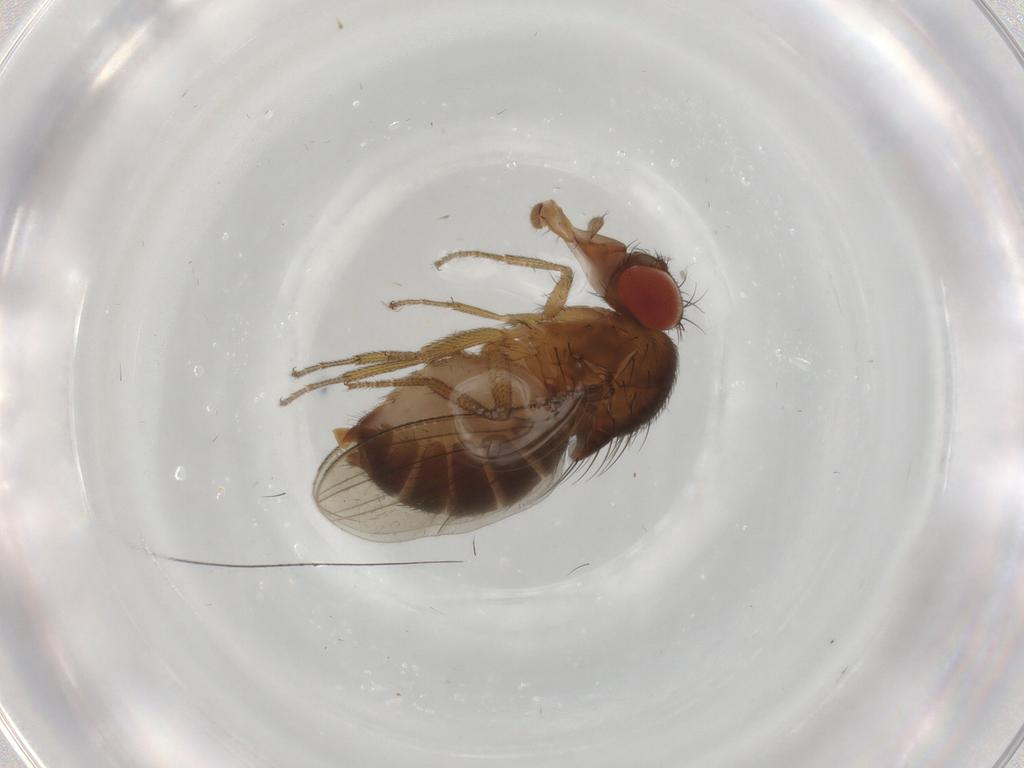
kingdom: Animalia
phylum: Arthropoda
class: Insecta
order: Diptera
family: Drosophilidae
